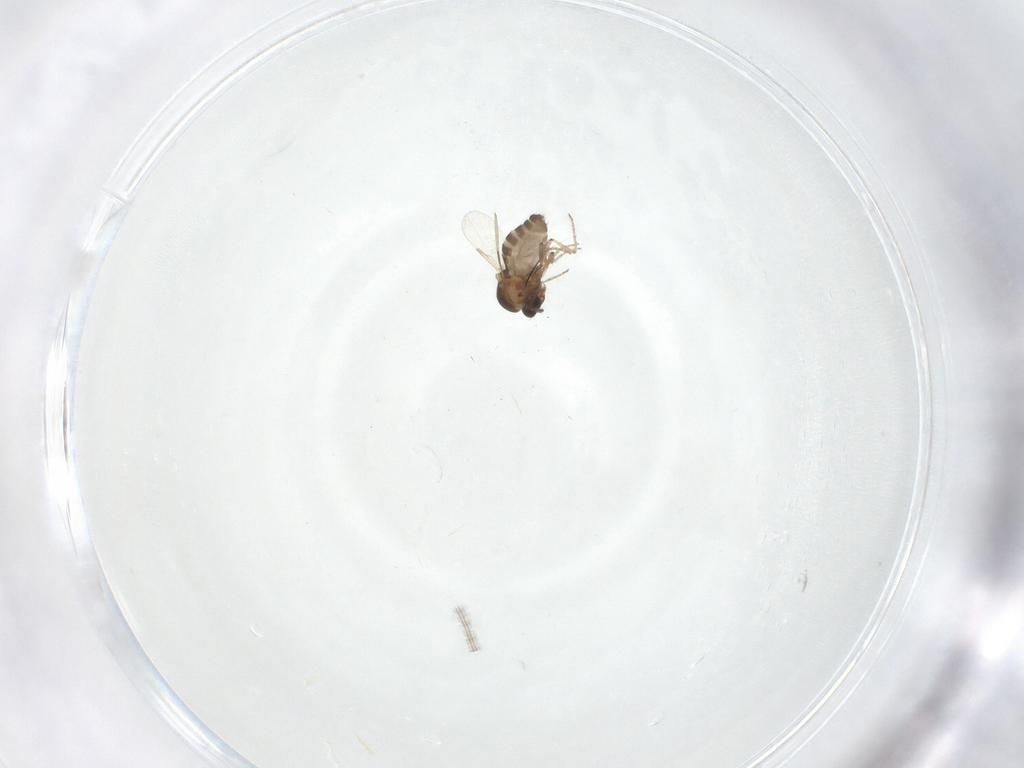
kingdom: Animalia
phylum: Arthropoda
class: Insecta
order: Diptera
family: Ceratopogonidae
